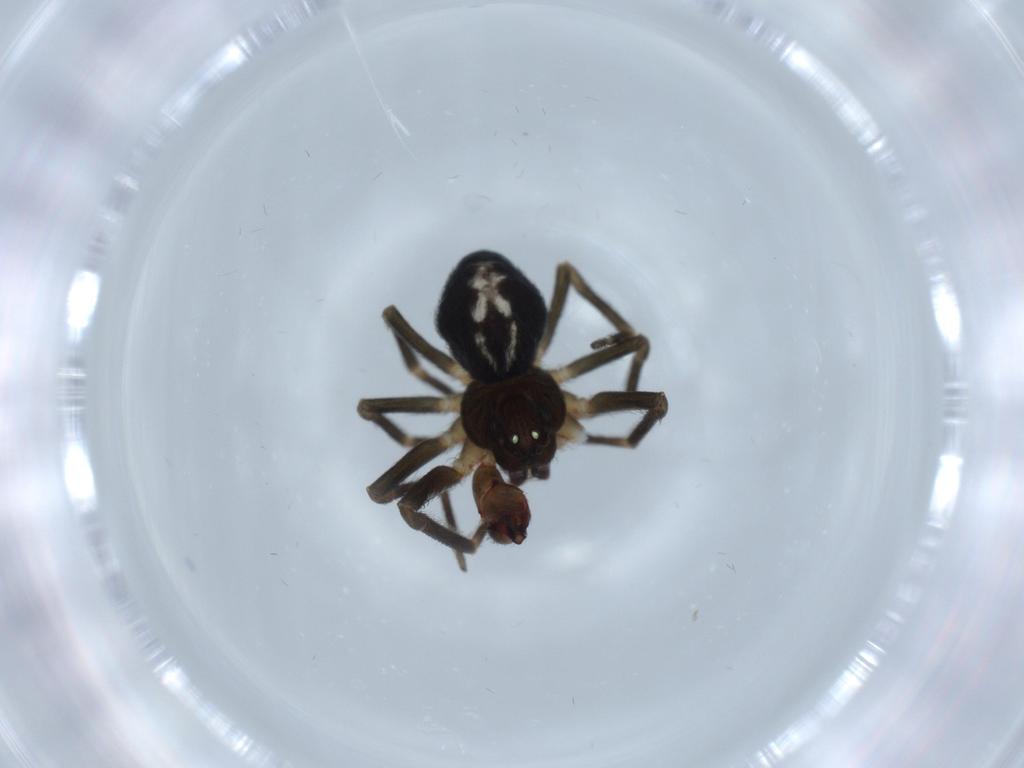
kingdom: Animalia
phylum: Arthropoda
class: Arachnida
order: Araneae
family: Dictynidae
